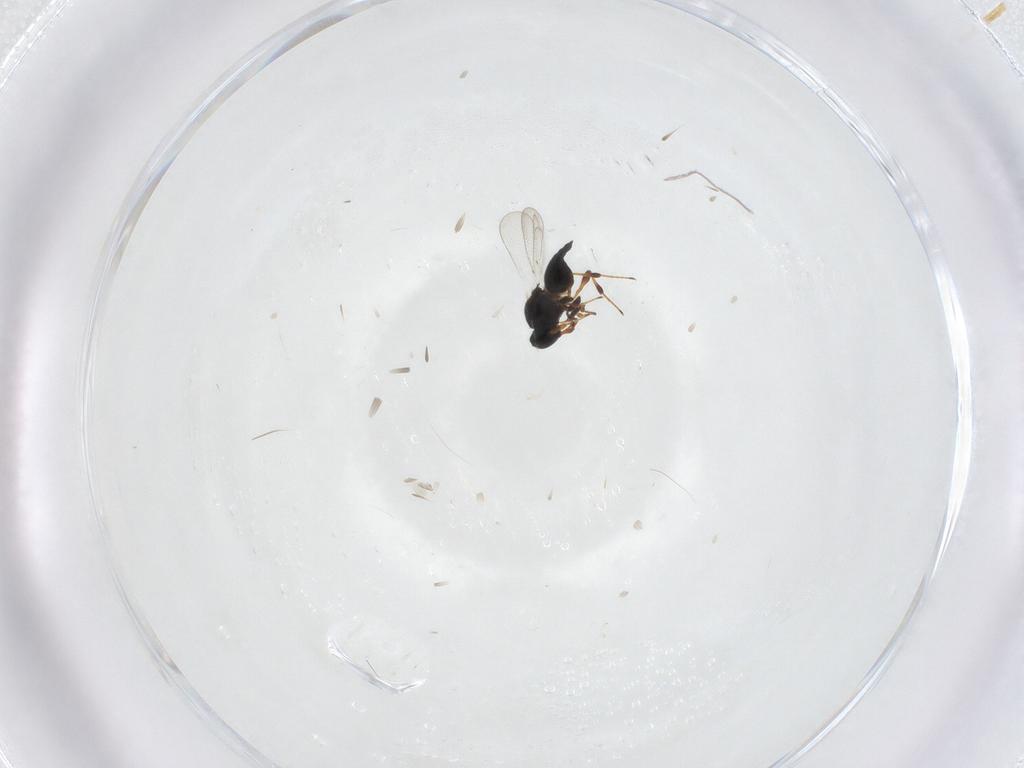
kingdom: Animalia
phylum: Arthropoda
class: Insecta
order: Hymenoptera
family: Platygastridae
